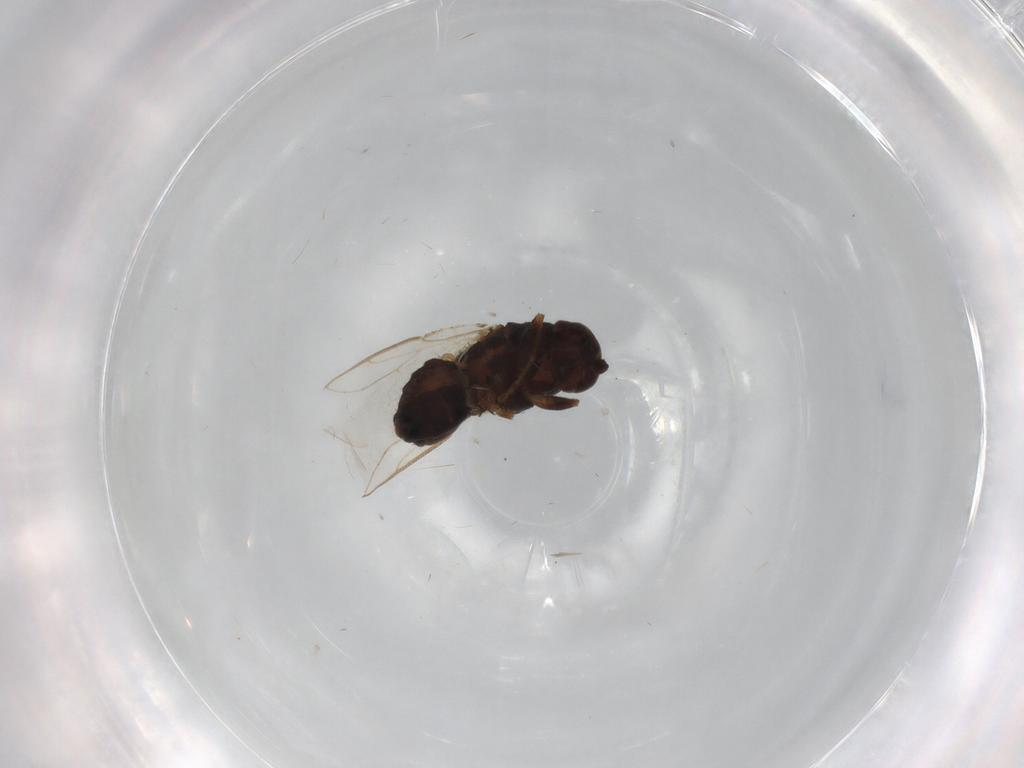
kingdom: Animalia
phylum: Arthropoda
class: Insecta
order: Diptera
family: Sphaeroceridae
